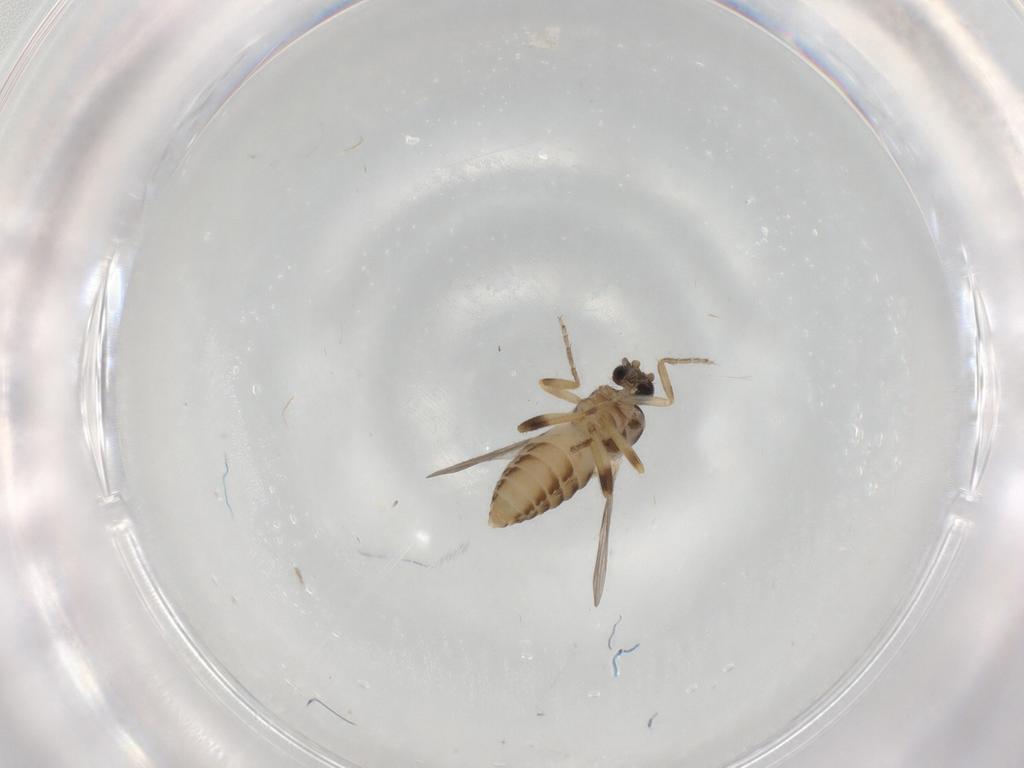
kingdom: Animalia
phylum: Arthropoda
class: Insecta
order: Diptera
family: Ceratopogonidae
